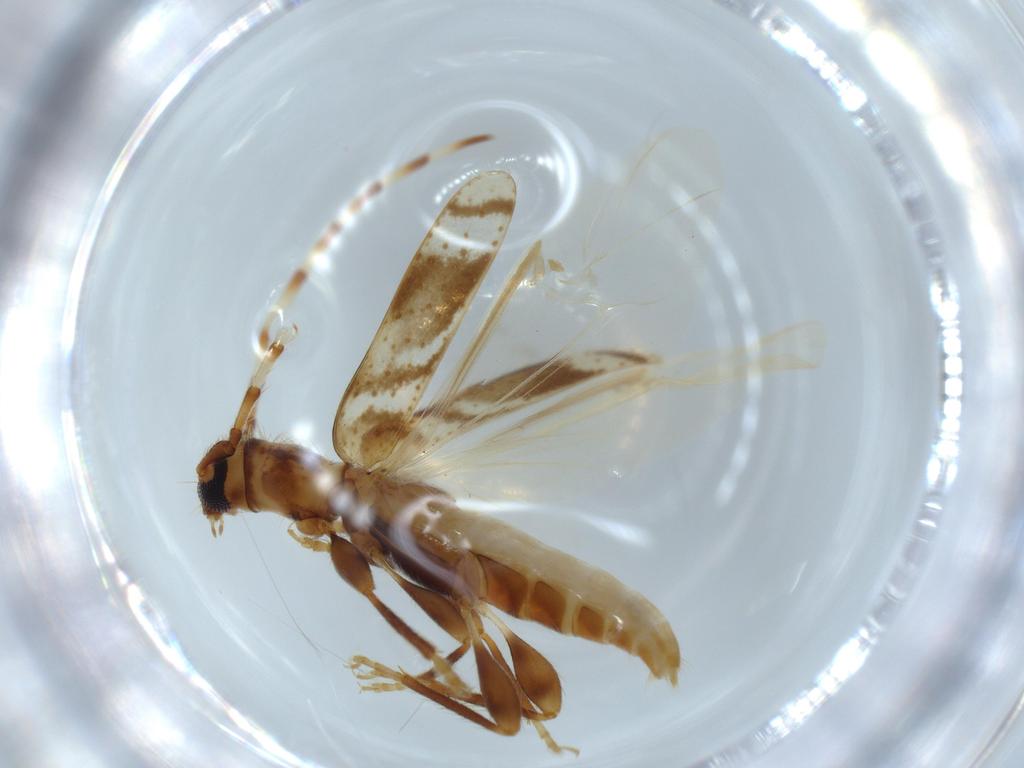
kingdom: Animalia
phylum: Arthropoda
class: Insecta
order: Coleoptera
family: Cerambycidae
